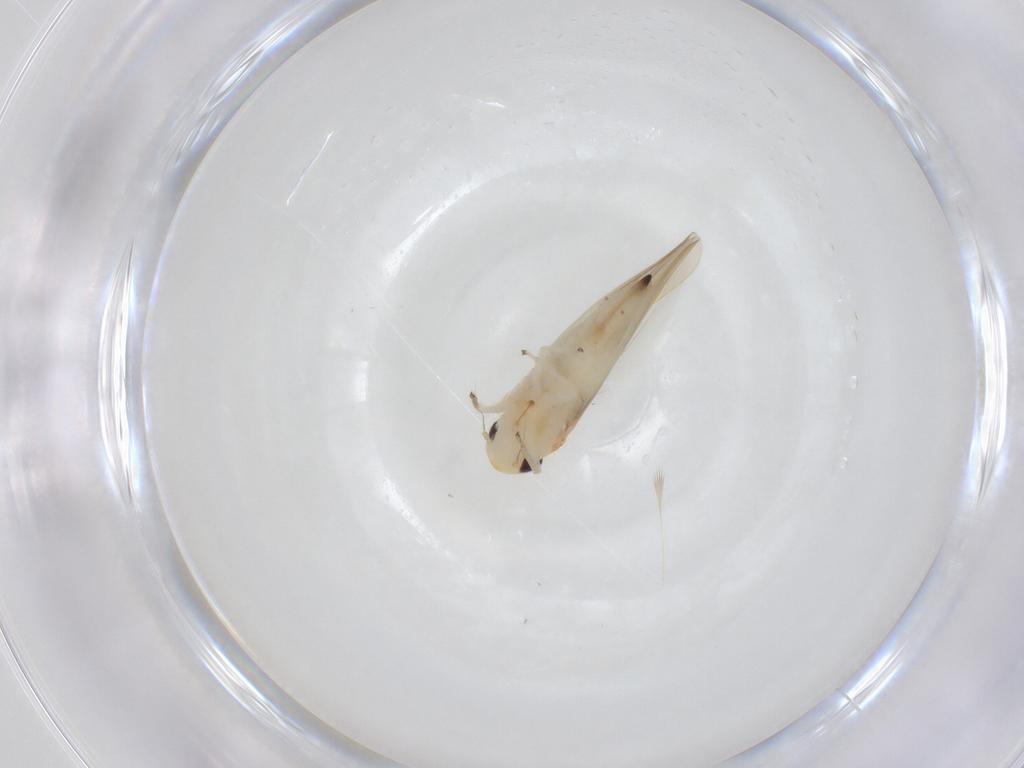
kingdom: Animalia
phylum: Arthropoda
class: Insecta
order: Hemiptera
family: Cicadellidae
